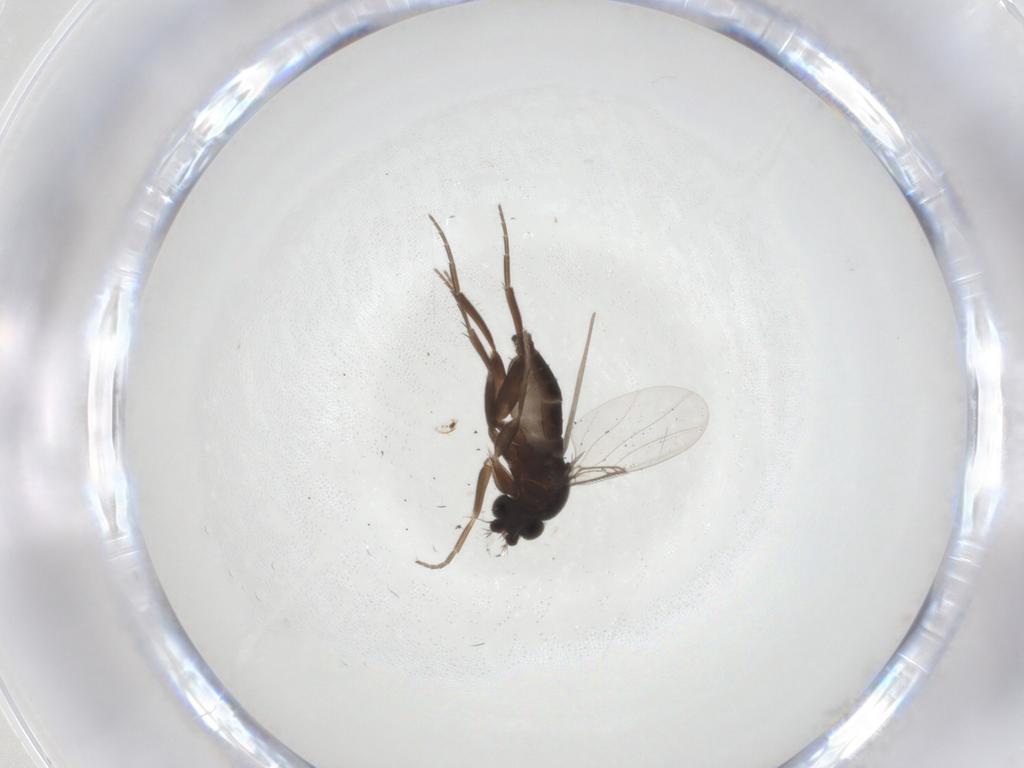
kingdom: Animalia
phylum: Arthropoda
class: Insecta
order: Diptera
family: Phoridae
